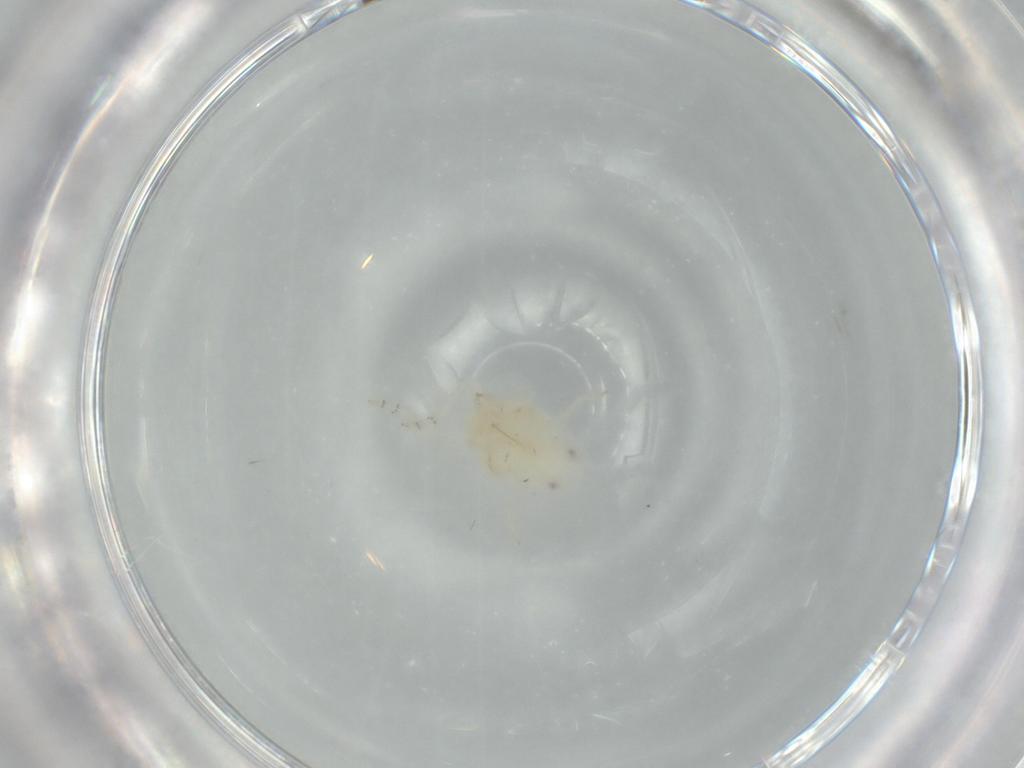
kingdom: Animalia
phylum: Arthropoda
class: Insecta
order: Hemiptera
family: Flatidae
